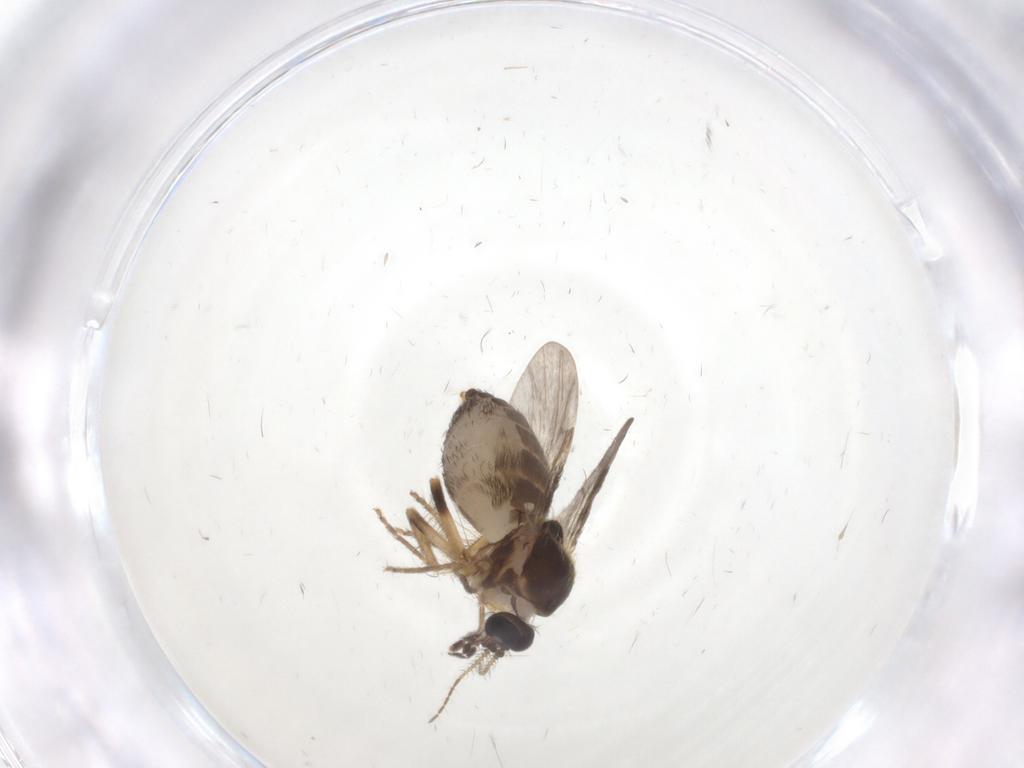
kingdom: Animalia
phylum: Arthropoda
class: Insecta
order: Diptera
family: Ceratopogonidae
